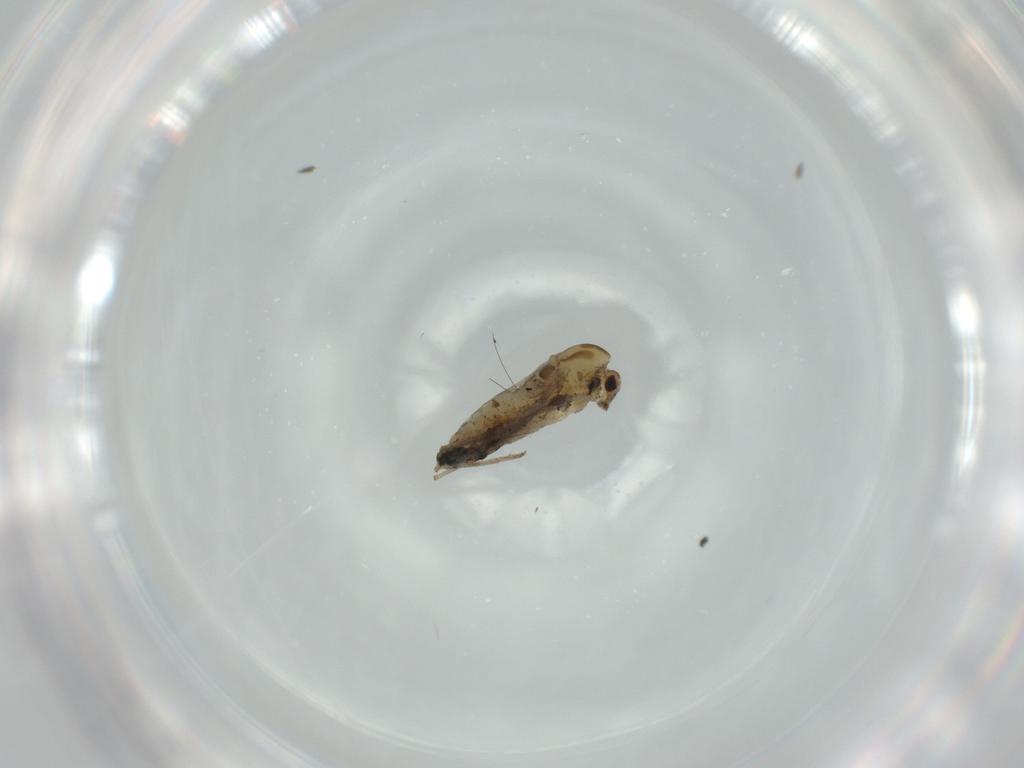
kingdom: Animalia
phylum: Arthropoda
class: Insecta
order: Diptera
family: Chironomidae
